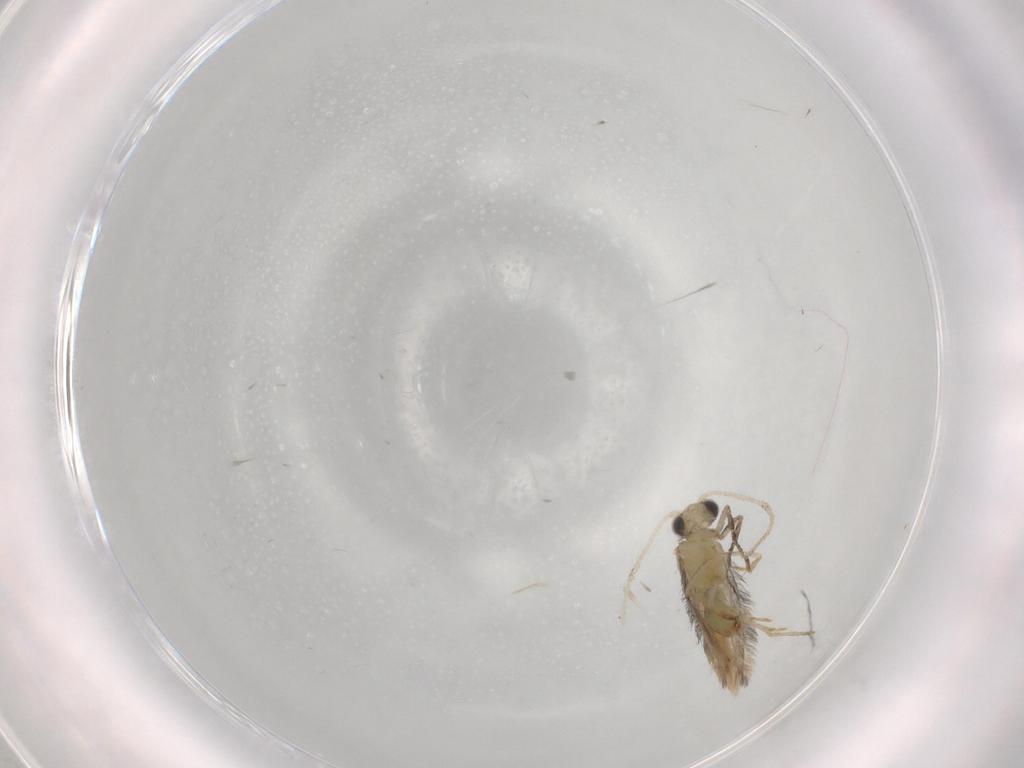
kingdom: Animalia
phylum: Arthropoda
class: Insecta
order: Trichoptera
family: Hydroptilidae
